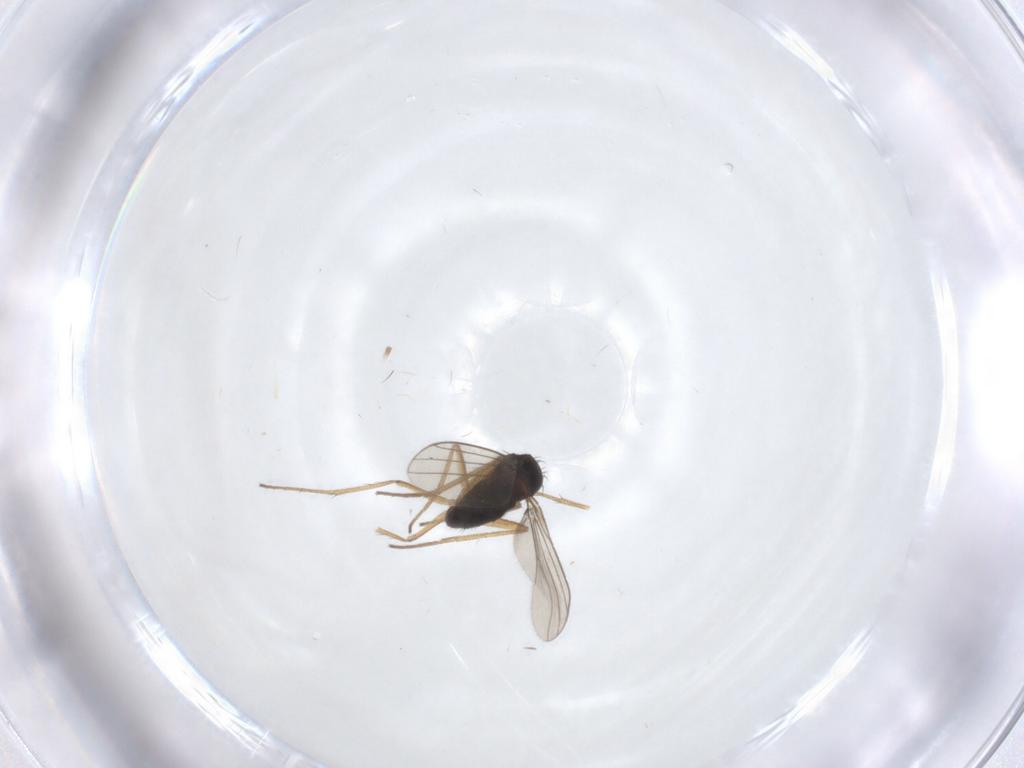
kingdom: Animalia
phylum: Arthropoda
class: Insecta
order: Diptera
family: Dolichopodidae
